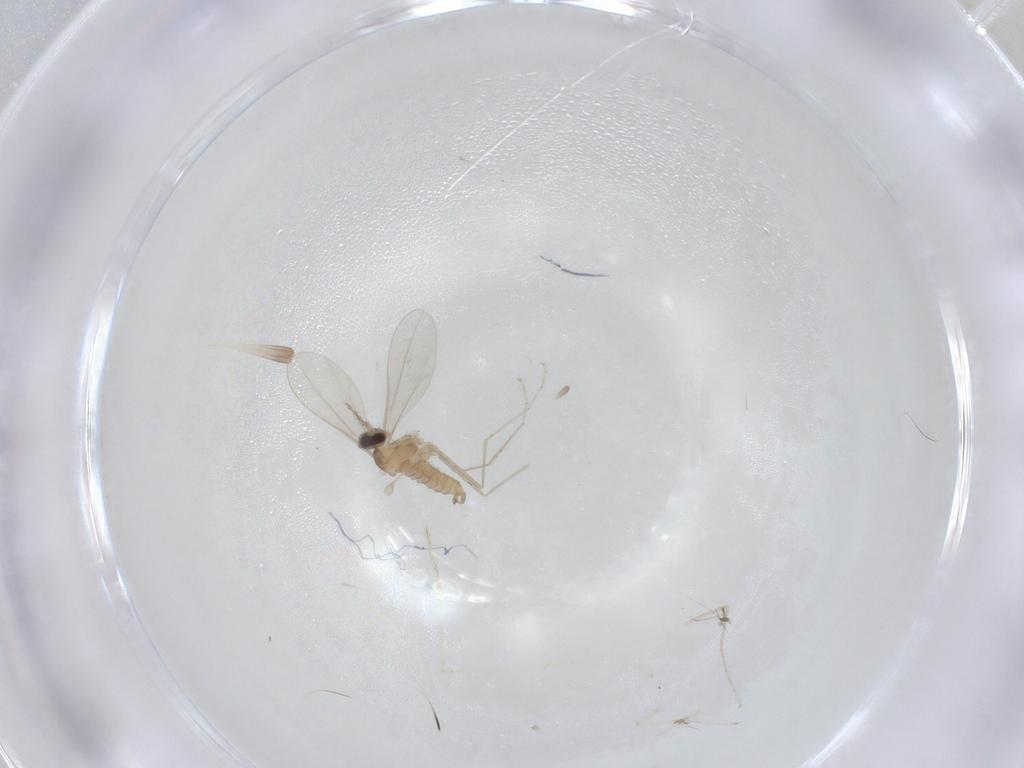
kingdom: Animalia
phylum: Arthropoda
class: Insecta
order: Diptera
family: Cecidomyiidae
